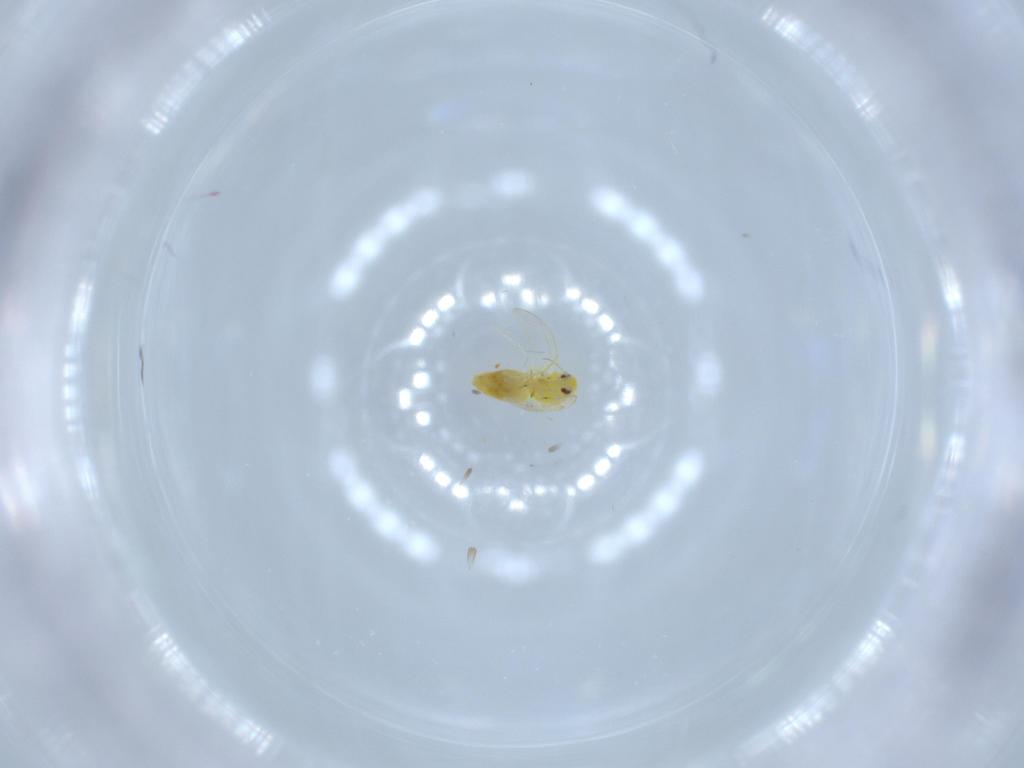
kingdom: Animalia
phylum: Arthropoda
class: Insecta
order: Hemiptera
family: Aleyrodidae
